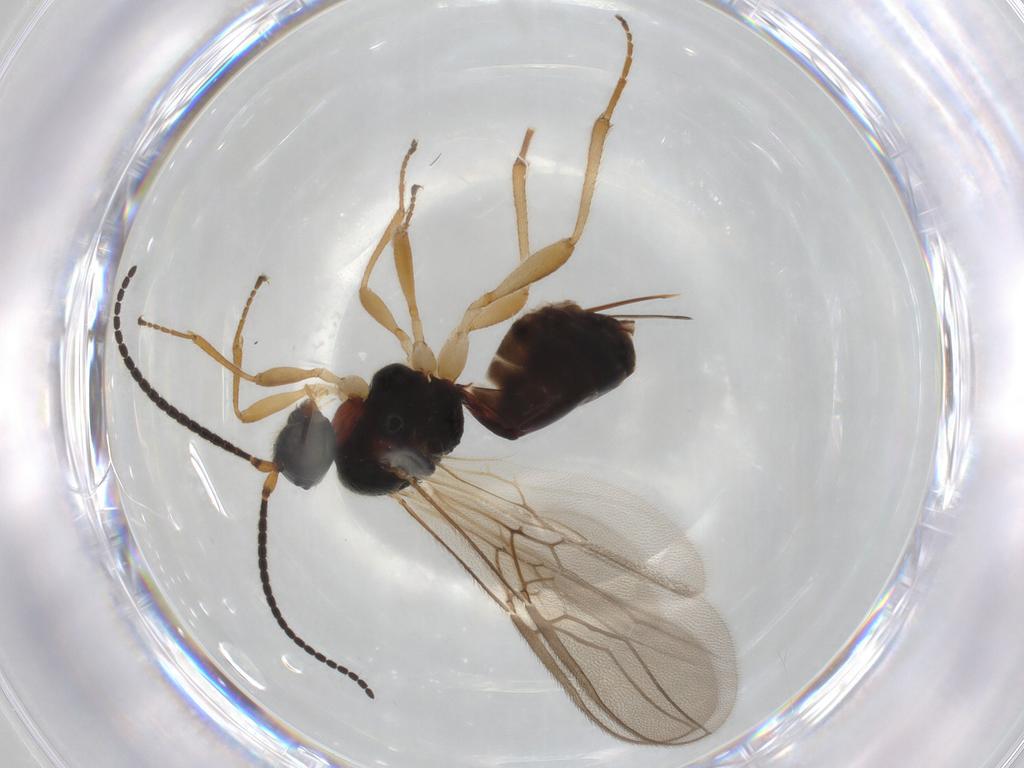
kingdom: Animalia
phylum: Arthropoda
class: Insecta
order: Hymenoptera
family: Braconidae
